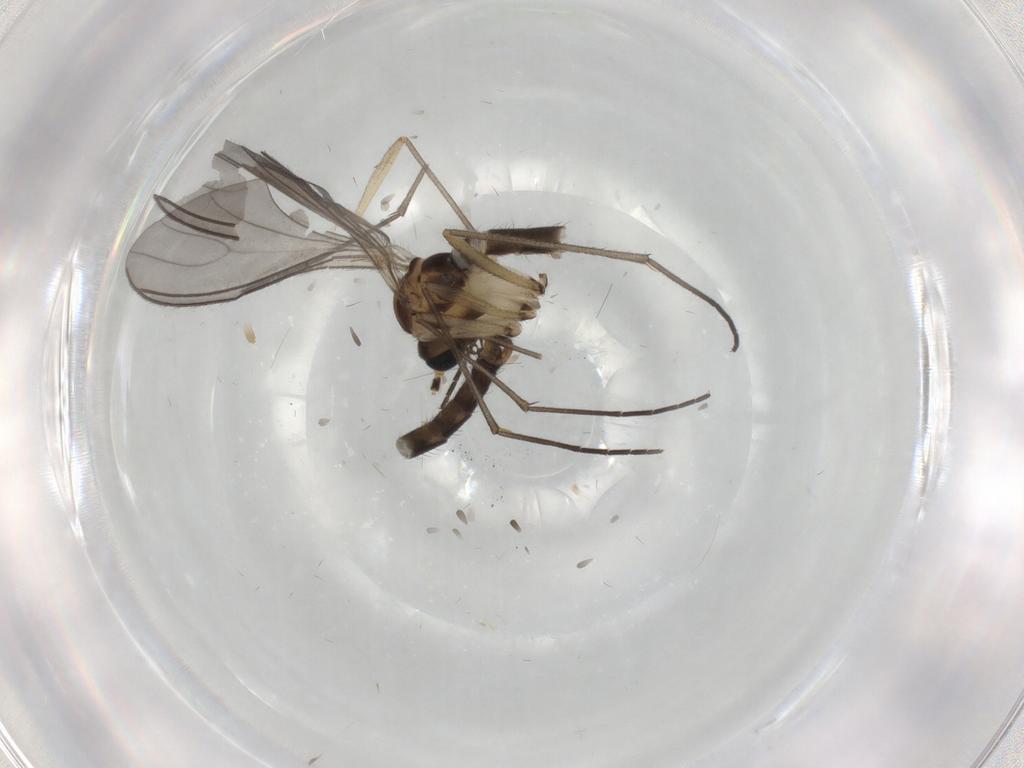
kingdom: Animalia
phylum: Arthropoda
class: Insecta
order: Diptera
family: Sciaridae
